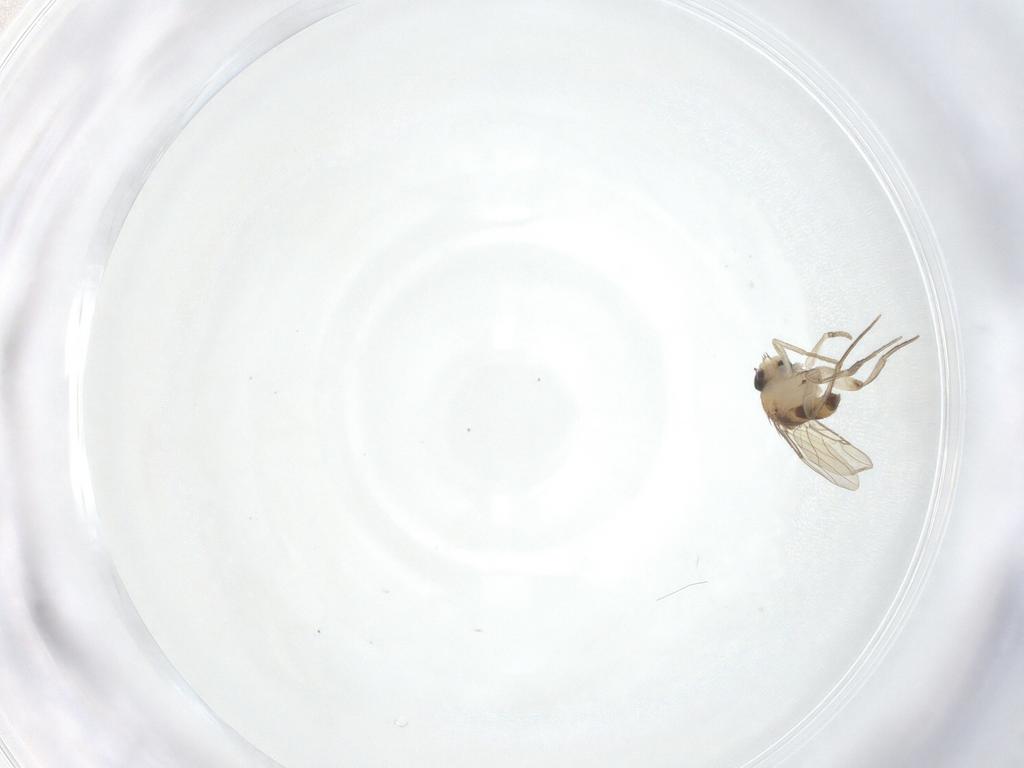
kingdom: Animalia
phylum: Arthropoda
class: Insecta
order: Diptera
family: Phoridae
